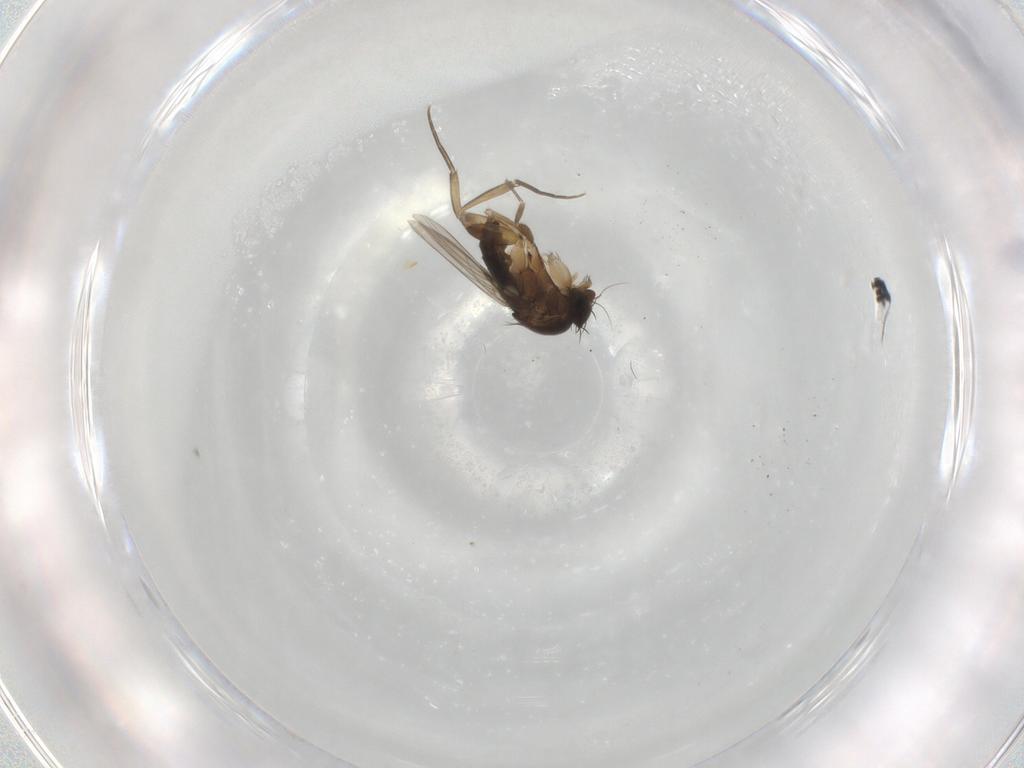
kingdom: Animalia
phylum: Arthropoda
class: Insecta
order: Diptera
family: Phoridae
